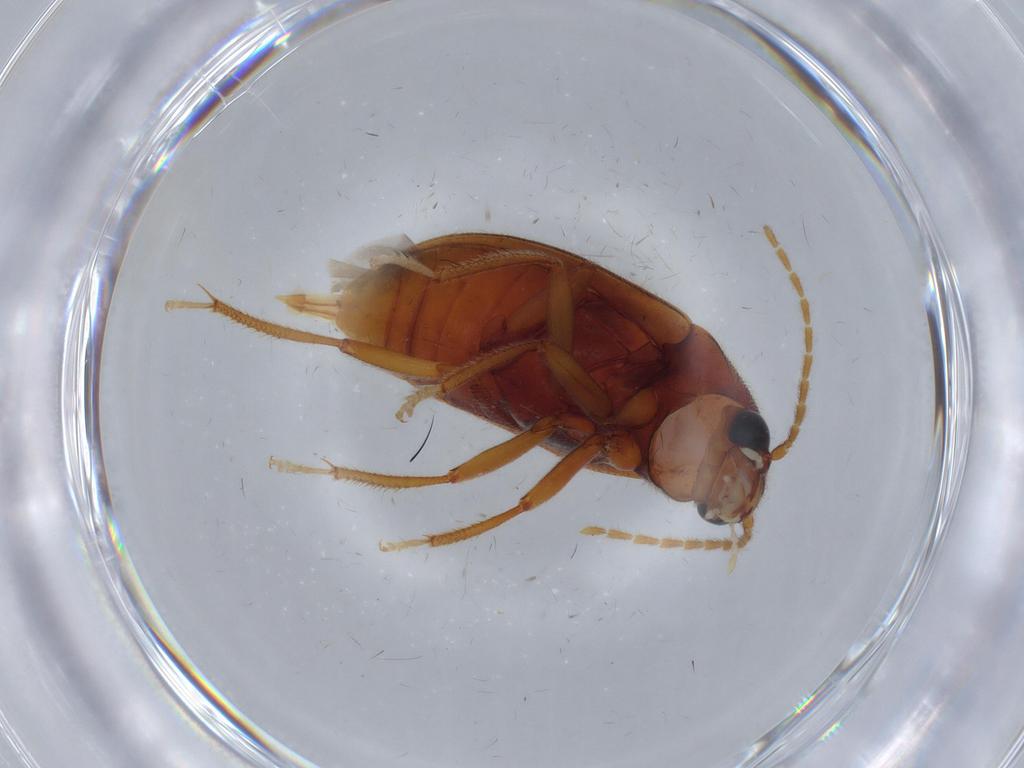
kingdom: Animalia
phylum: Arthropoda
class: Insecta
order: Coleoptera
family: Ptilodactylidae
